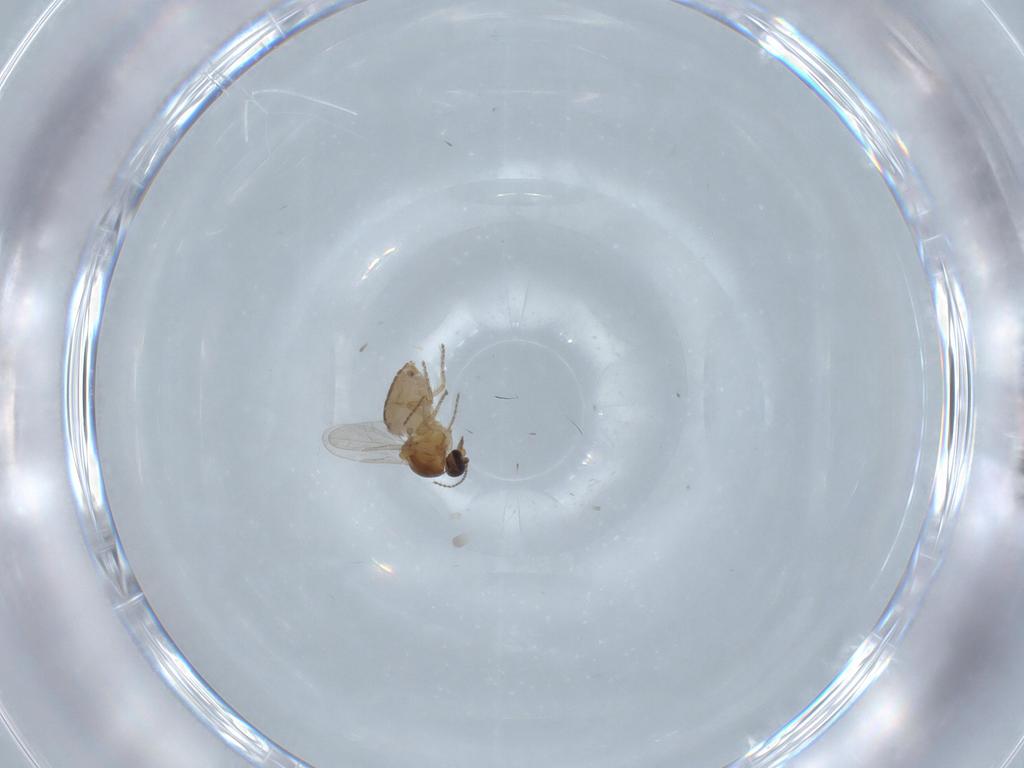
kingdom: Animalia
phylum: Arthropoda
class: Insecta
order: Diptera
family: Ceratopogonidae
